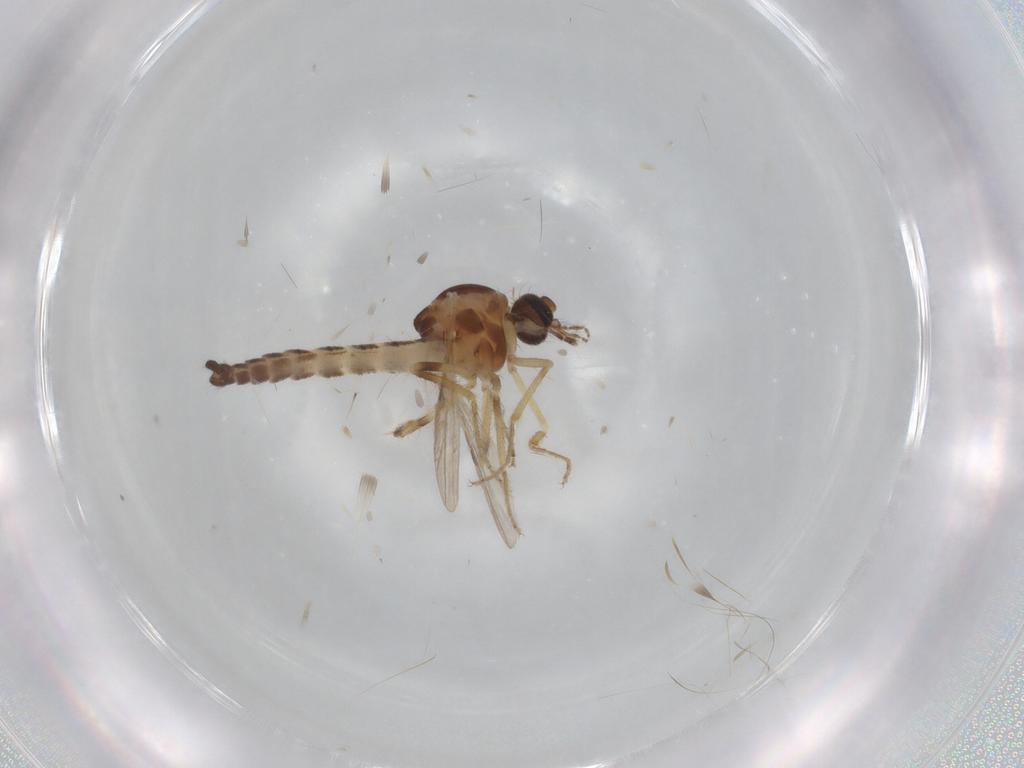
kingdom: Animalia
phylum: Arthropoda
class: Insecta
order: Diptera
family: Ceratopogonidae
